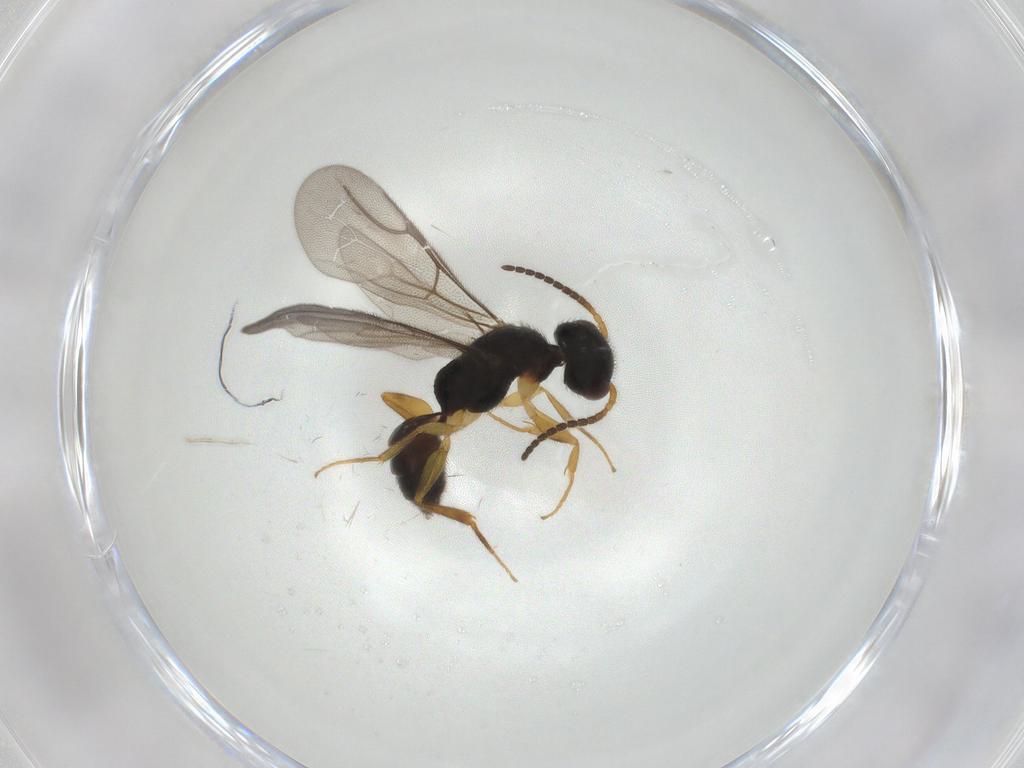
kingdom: Animalia
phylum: Arthropoda
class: Insecta
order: Hymenoptera
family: Bethylidae
